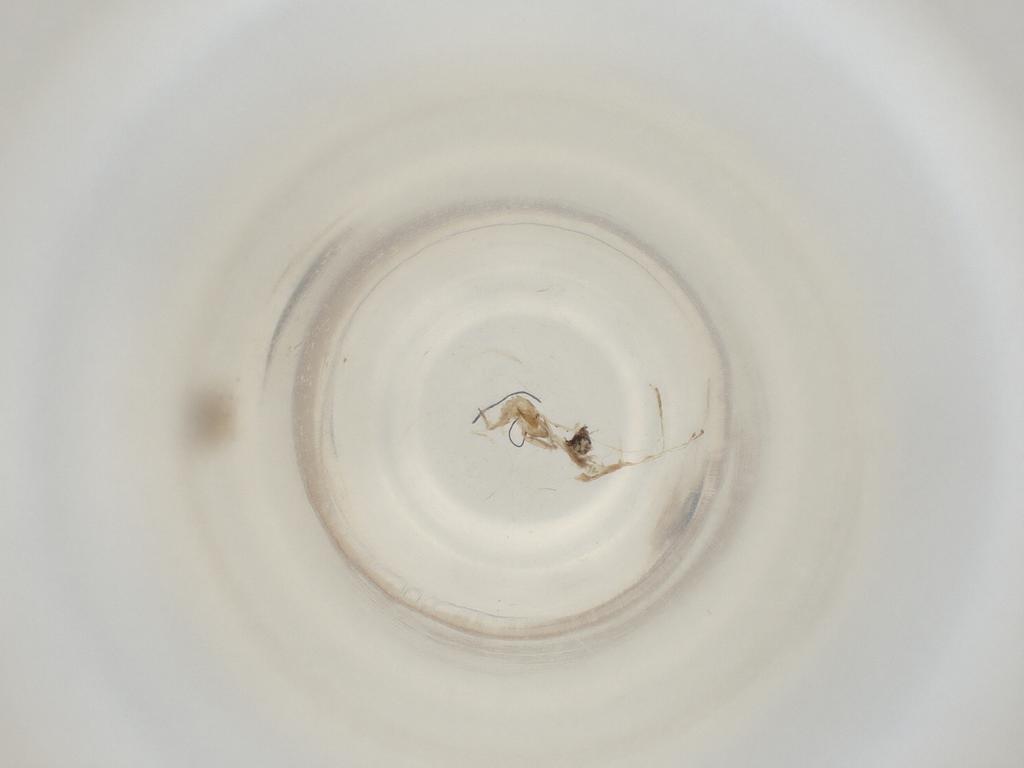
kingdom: Animalia
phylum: Arthropoda
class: Insecta
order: Diptera
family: Cecidomyiidae
